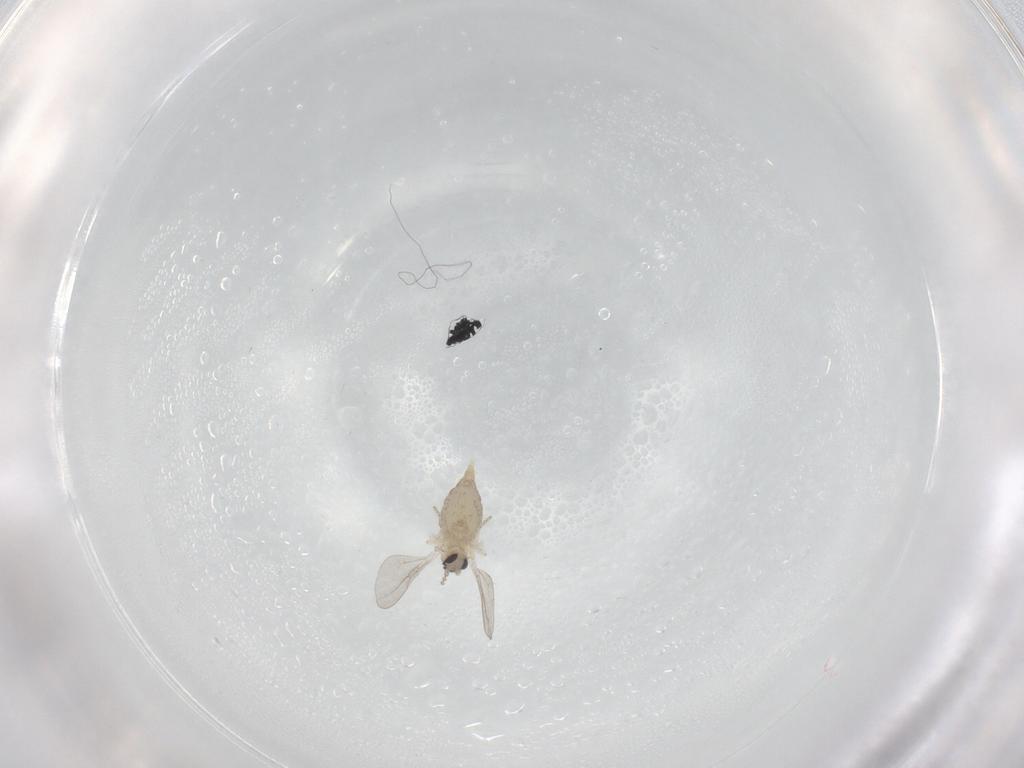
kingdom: Animalia
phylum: Arthropoda
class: Insecta
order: Diptera
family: Cecidomyiidae
